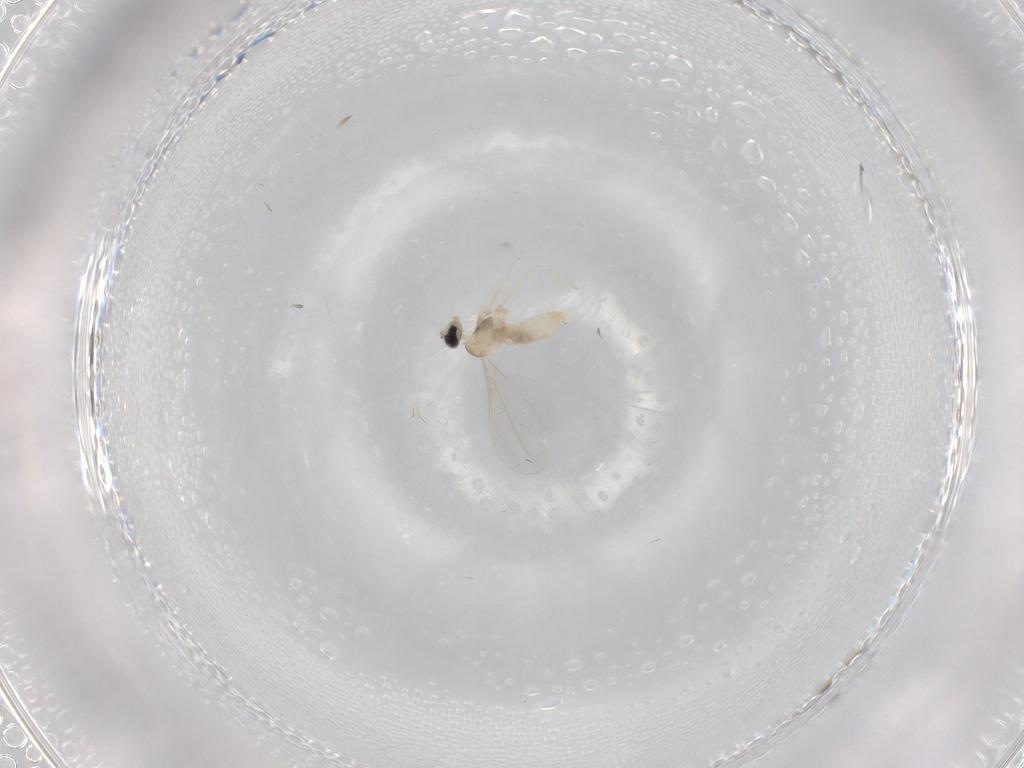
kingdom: Animalia
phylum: Arthropoda
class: Insecta
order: Diptera
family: Cecidomyiidae
